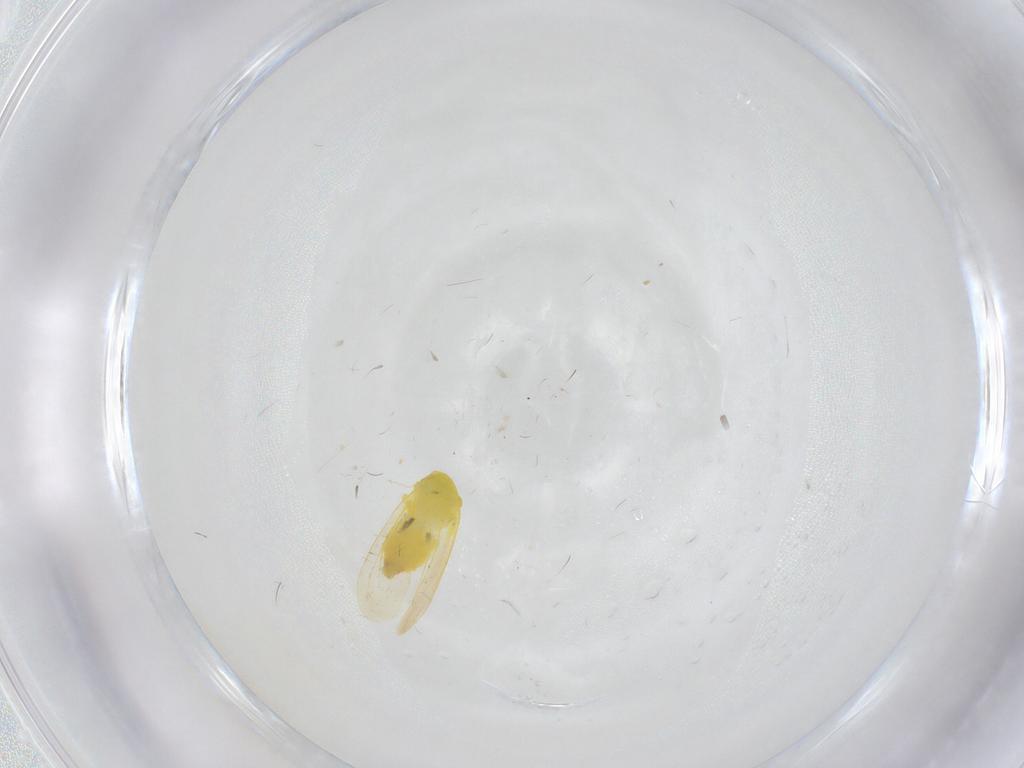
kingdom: Animalia
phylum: Arthropoda
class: Insecta
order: Hemiptera
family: Aleyrodidae
